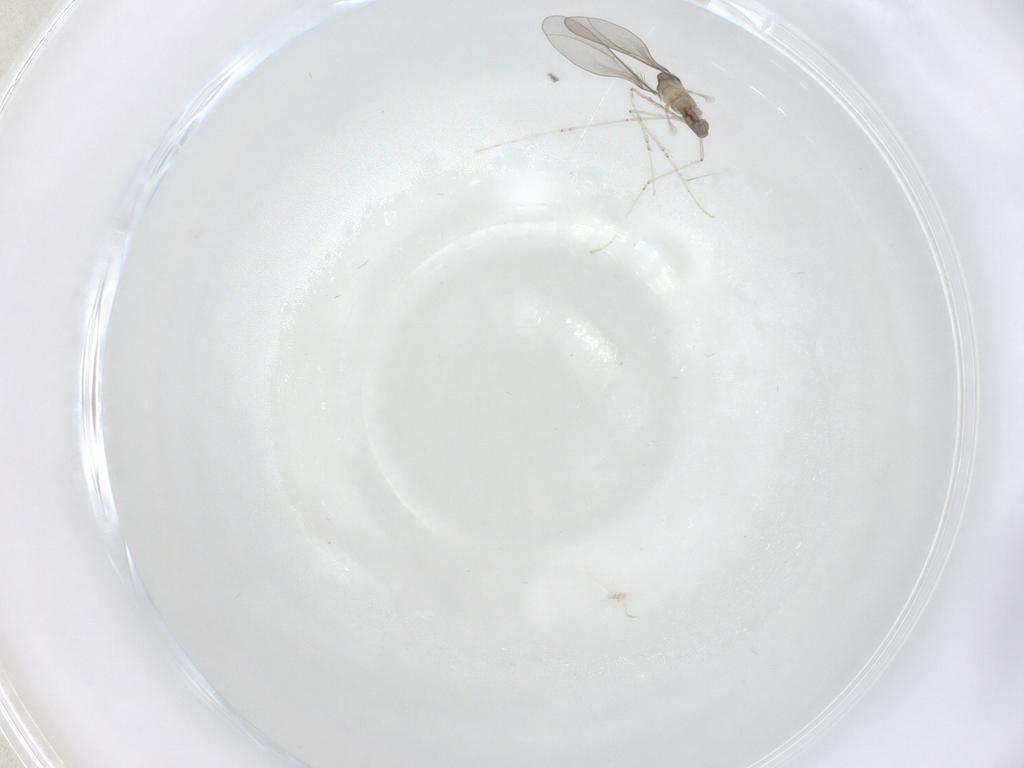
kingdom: Animalia
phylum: Arthropoda
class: Insecta
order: Diptera
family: Cecidomyiidae
